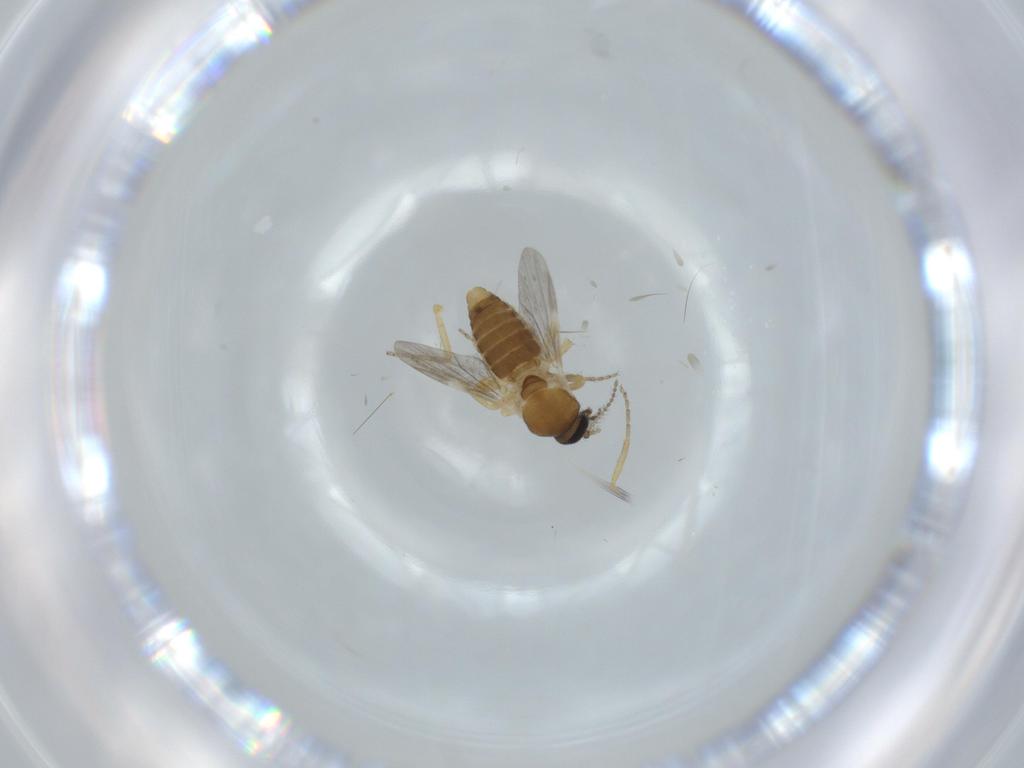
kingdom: Animalia
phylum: Arthropoda
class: Insecta
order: Diptera
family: Ceratopogonidae
